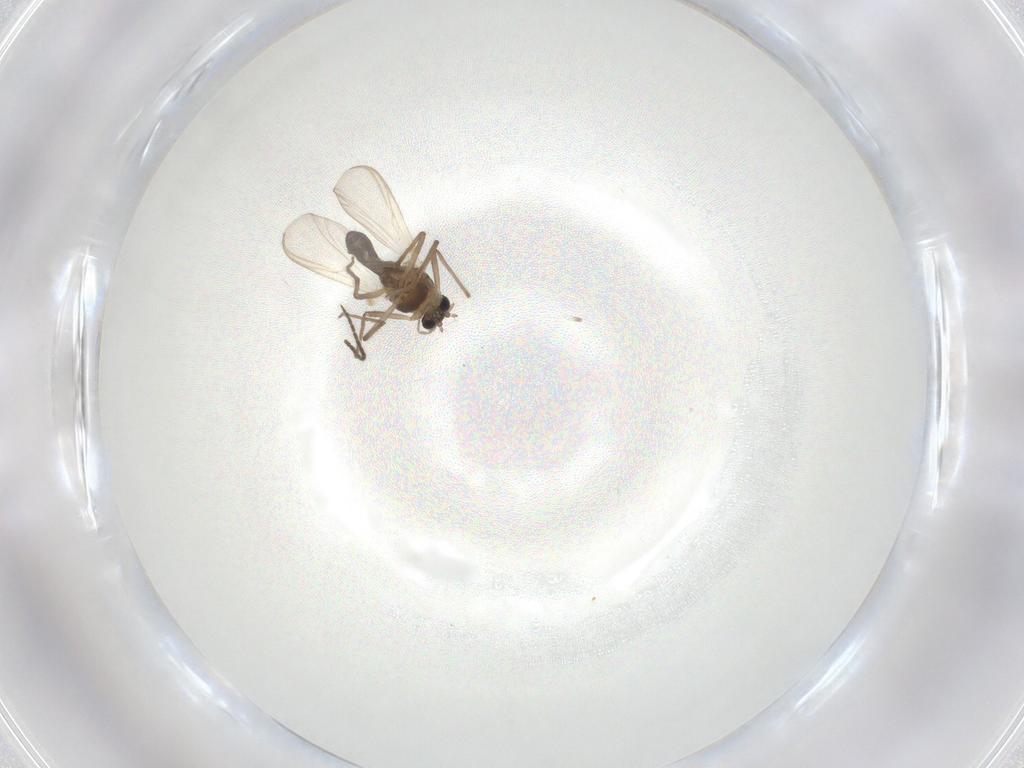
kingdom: Animalia
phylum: Arthropoda
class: Insecta
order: Diptera
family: Chironomidae
